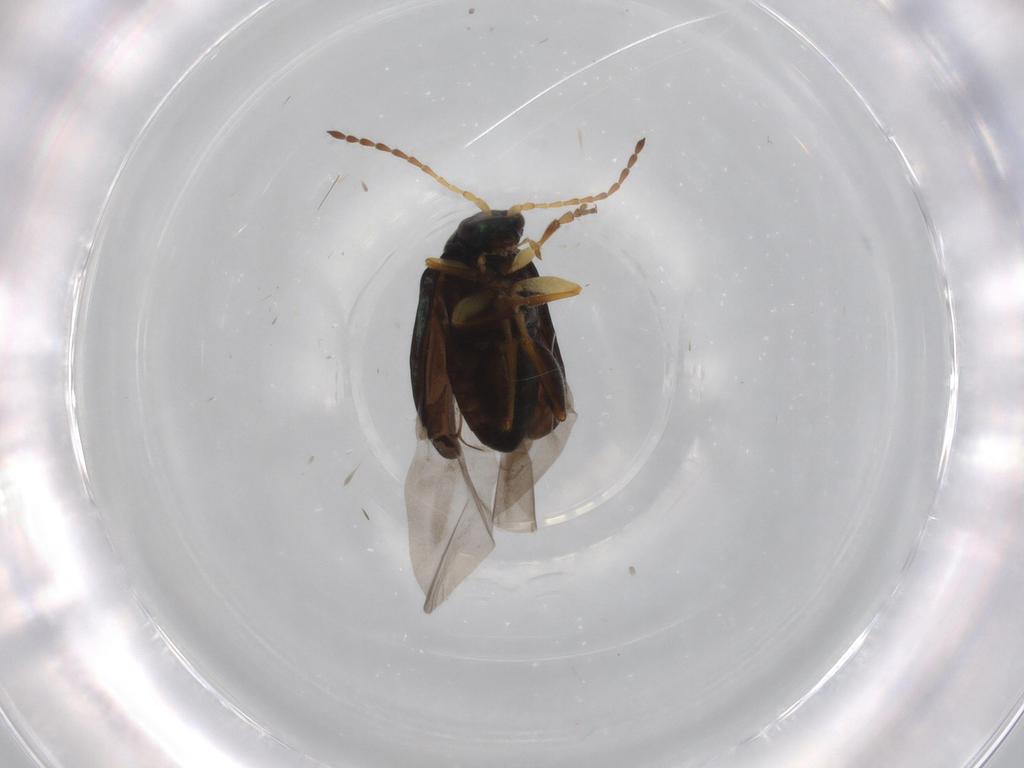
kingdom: Animalia
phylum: Arthropoda
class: Insecta
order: Coleoptera
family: Chrysomelidae
